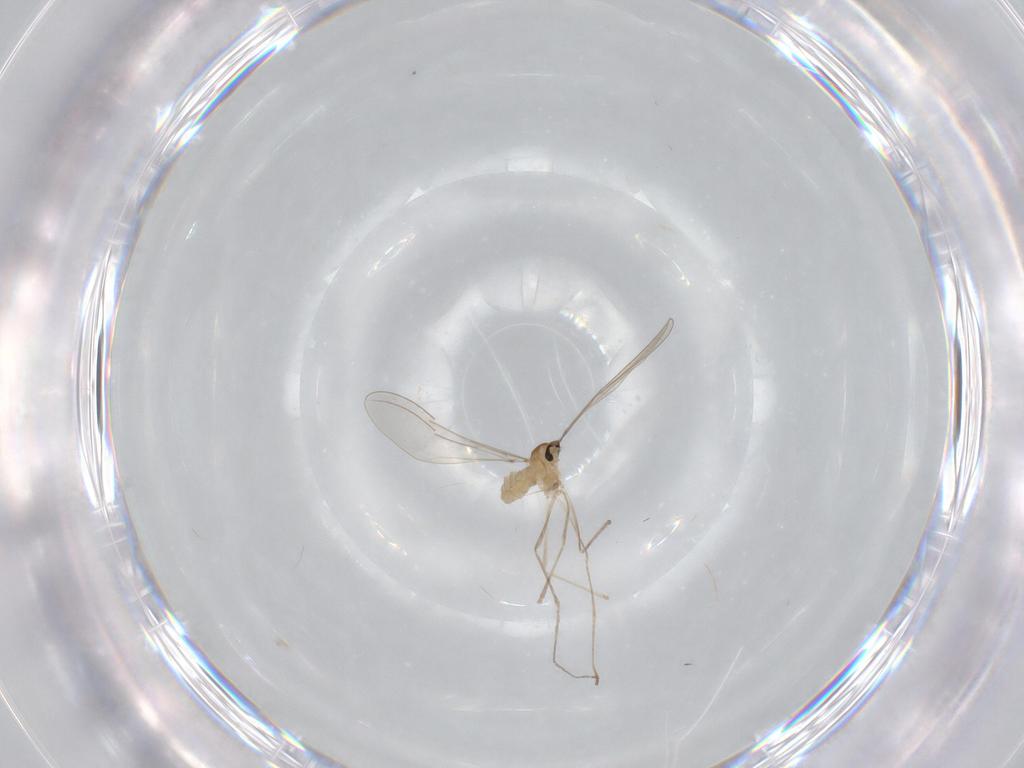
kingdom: Animalia
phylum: Arthropoda
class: Insecta
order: Diptera
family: Cecidomyiidae
